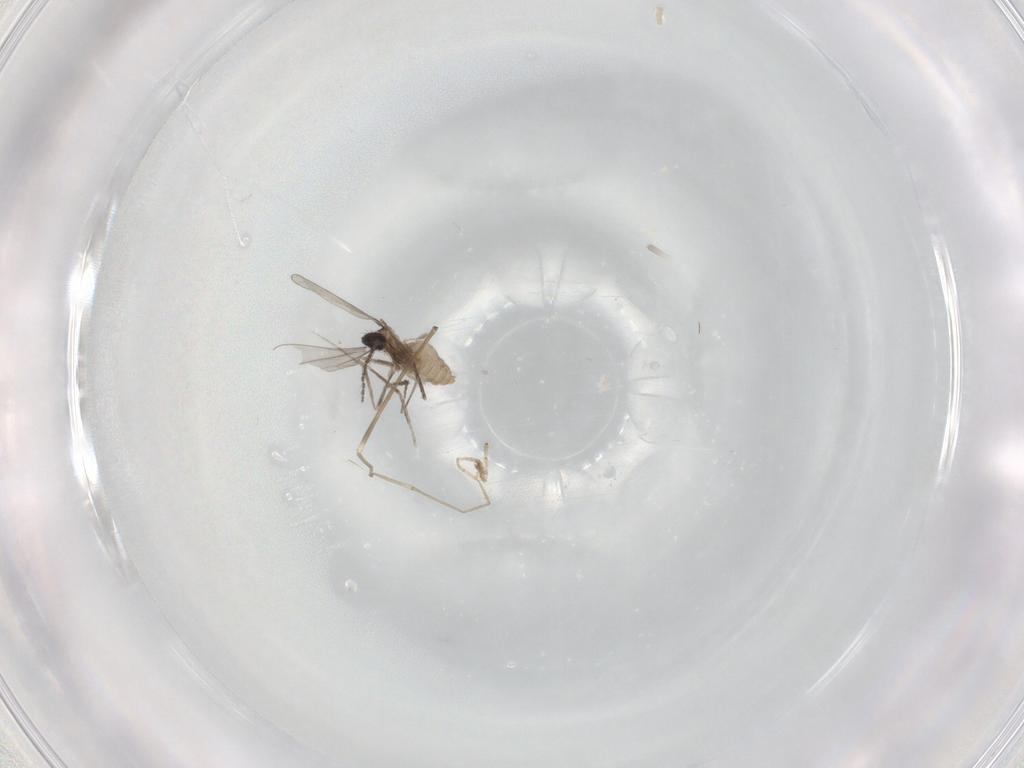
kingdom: Animalia
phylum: Arthropoda
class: Insecta
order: Diptera
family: Cecidomyiidae
